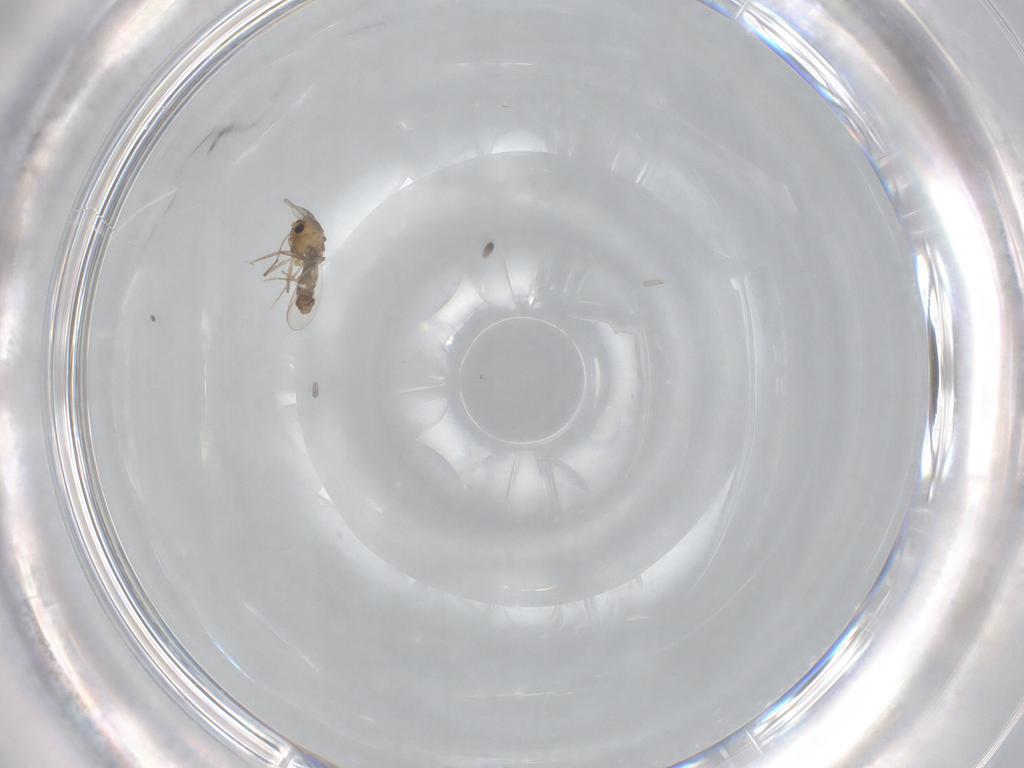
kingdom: Animalia
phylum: Arthropoda
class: Insecta
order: Diptera
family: Chironomidae
